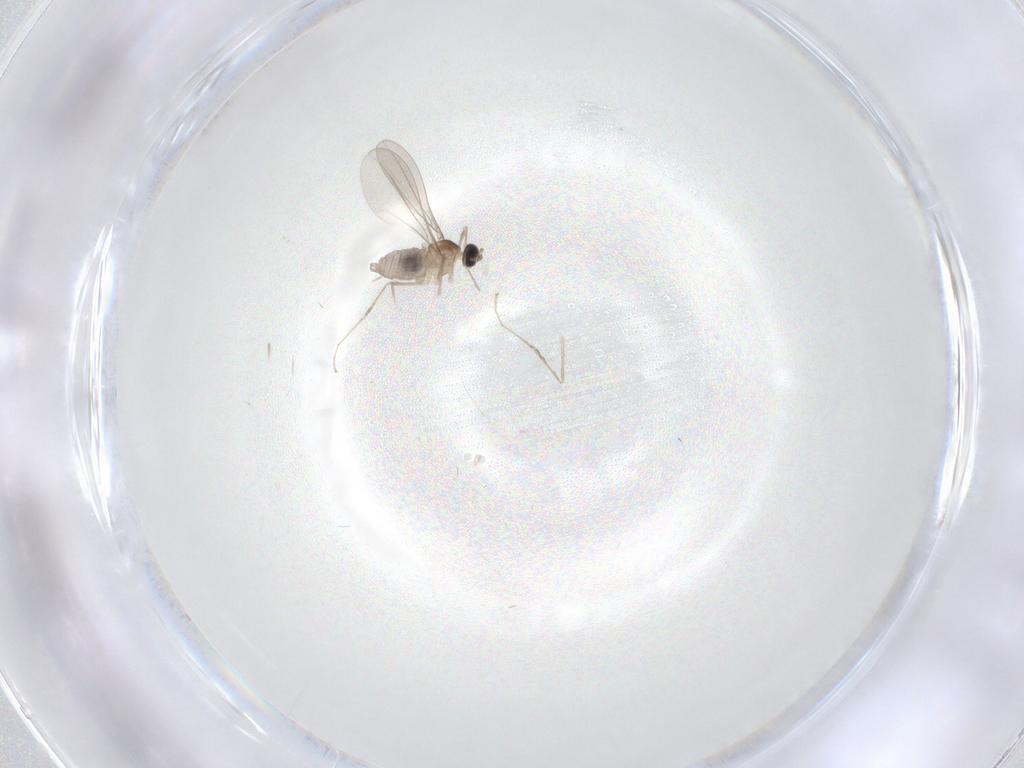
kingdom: Animalia
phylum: Arthropoda
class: Insecta
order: Diptera
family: Cecidomyiidae
